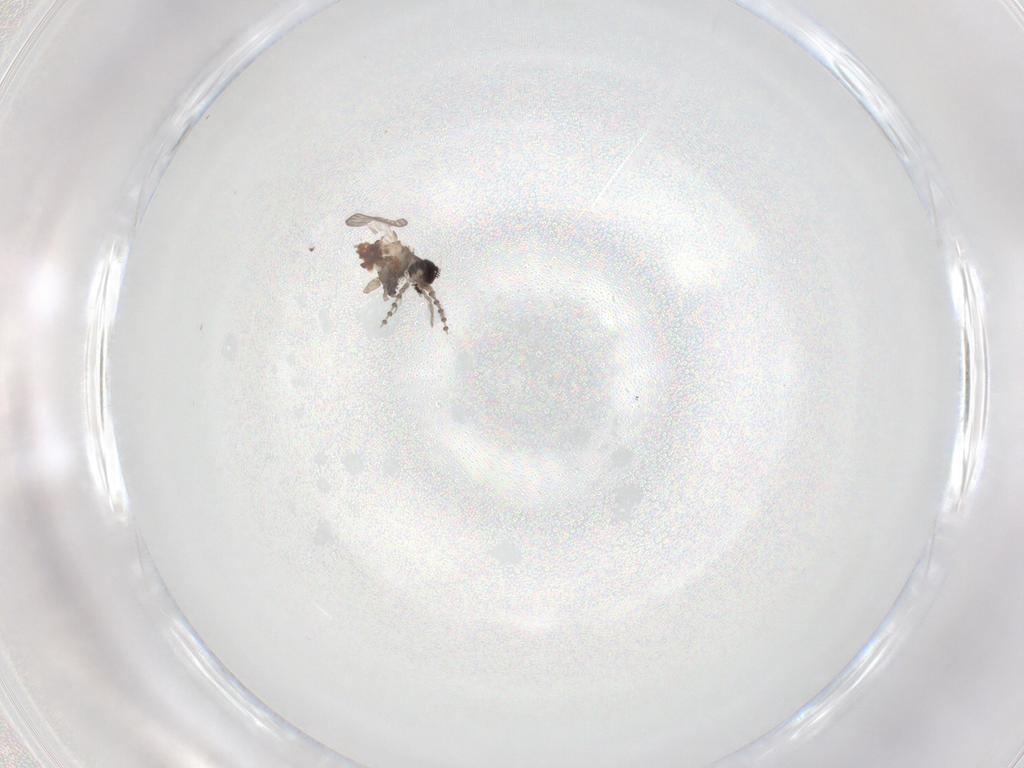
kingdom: Animalia
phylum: Arthropoda
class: Insecta
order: Diptera
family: Psychodidae
